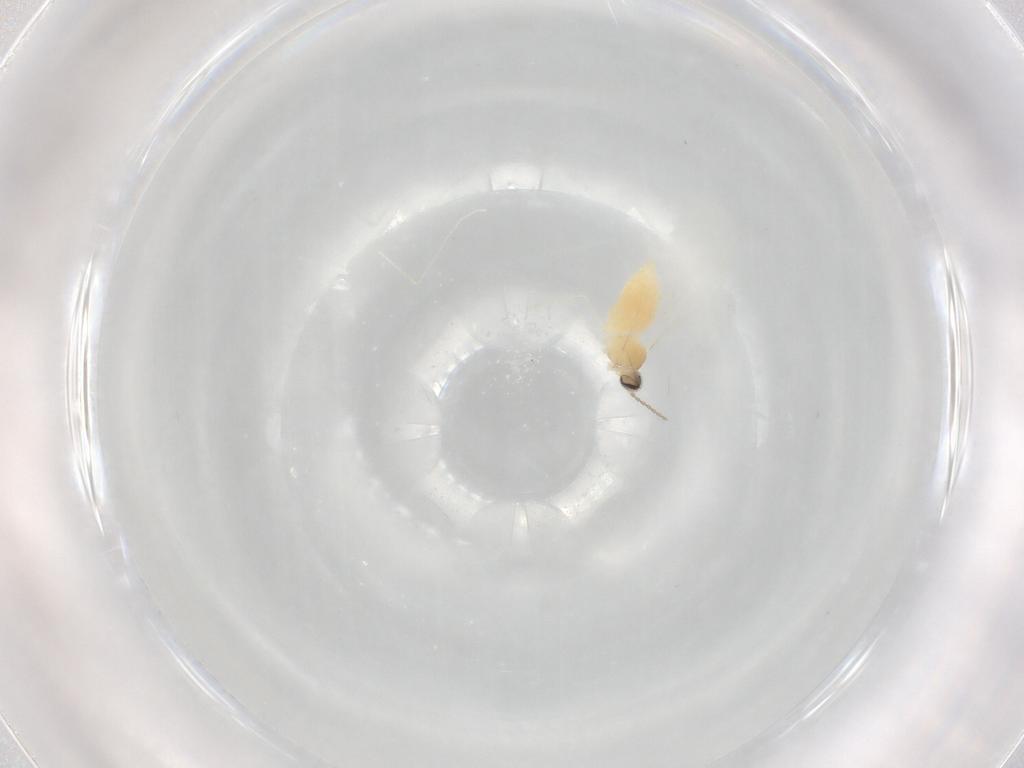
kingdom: Animalia
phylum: Arthropoda
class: Insecta
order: Diptera
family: Cecidomyiidae
